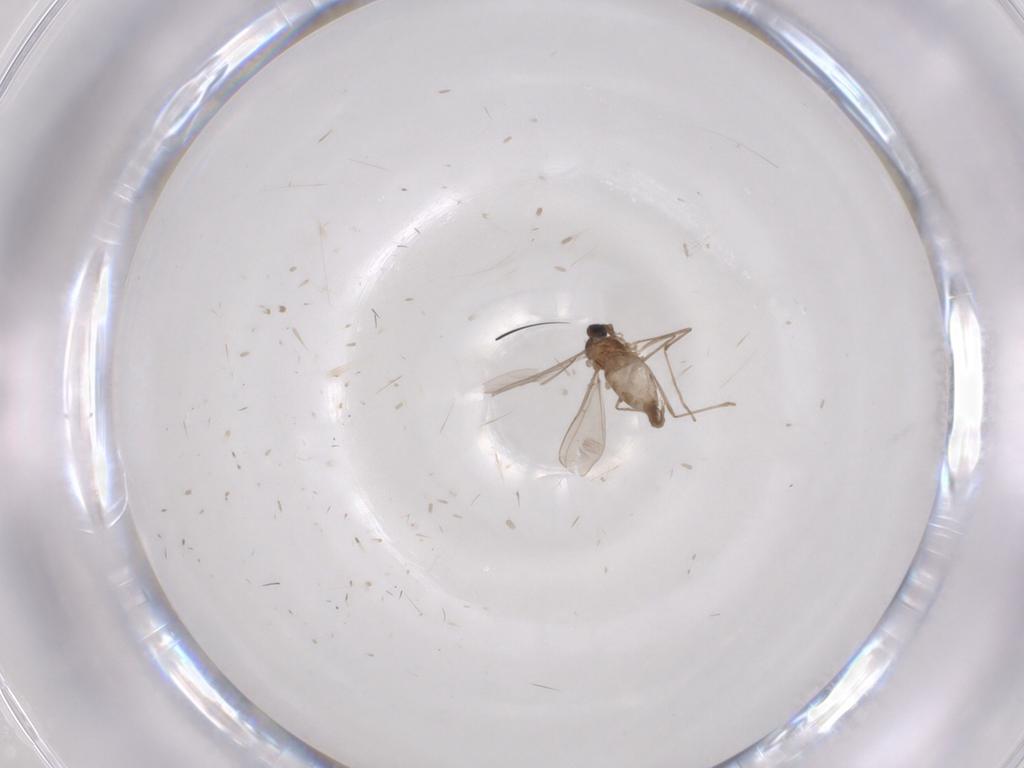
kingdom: Animalia
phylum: Arthropoda
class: Insecta
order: Diptera
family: Cecidomyiidae
